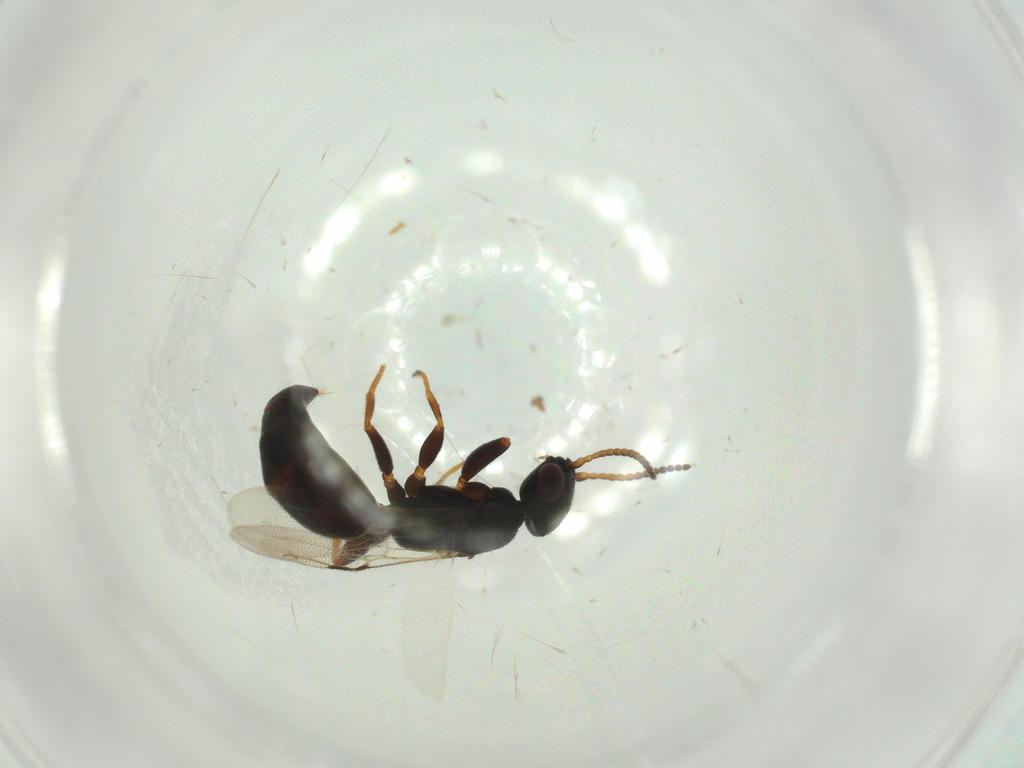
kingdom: Animalia
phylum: Arthropoda
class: Insecta
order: Hymenoptera
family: Bethylidae
